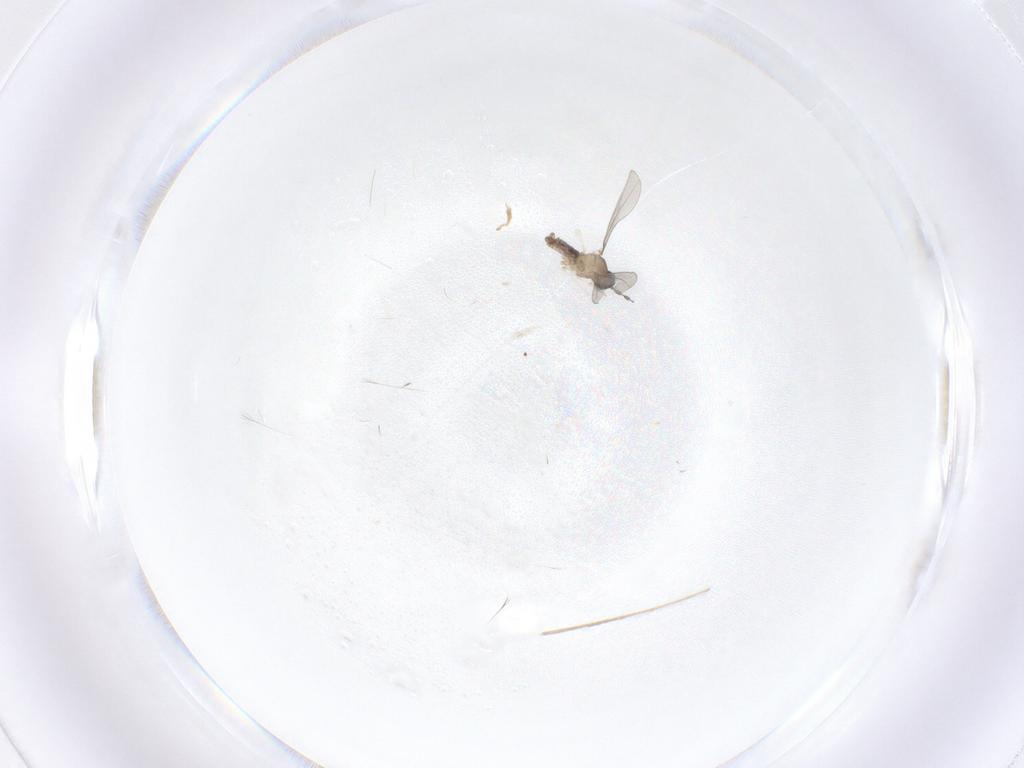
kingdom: Animalia
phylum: Arthropoda
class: Insecta
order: Diptera
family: Cecidomyiidae
